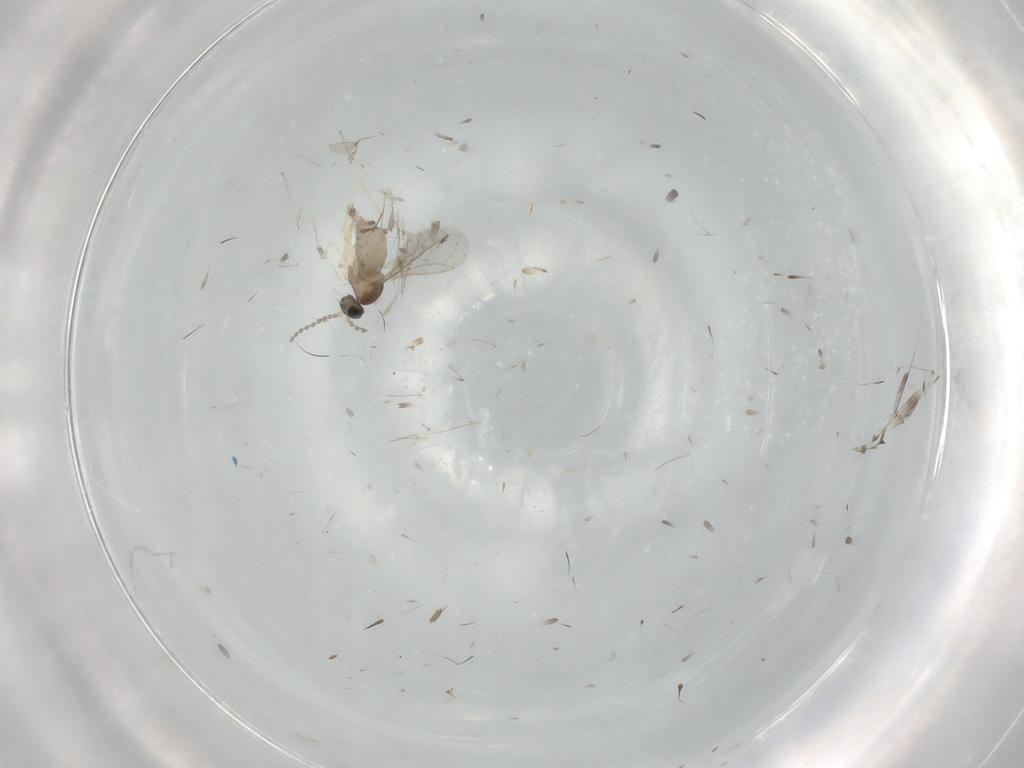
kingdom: Animalia
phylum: Arthropoda
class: Insecta
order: Diptera
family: Cecidomyiidae
